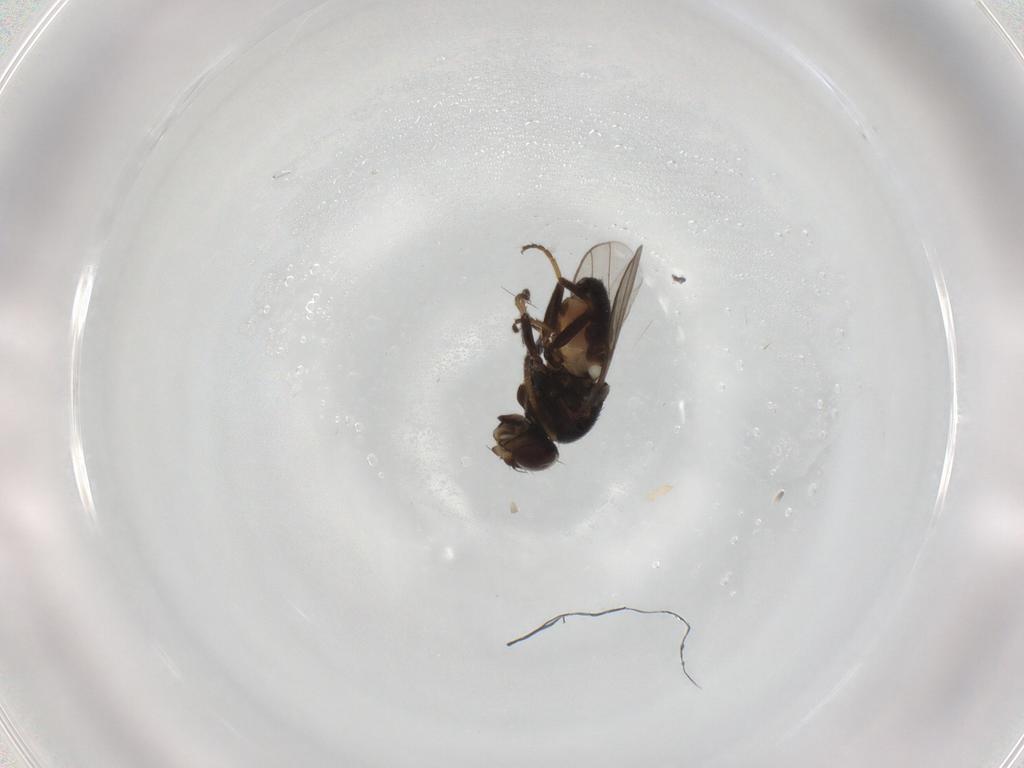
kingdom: Animalia
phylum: Arthropoda
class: Insecta
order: Diptera
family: Chloropidae
